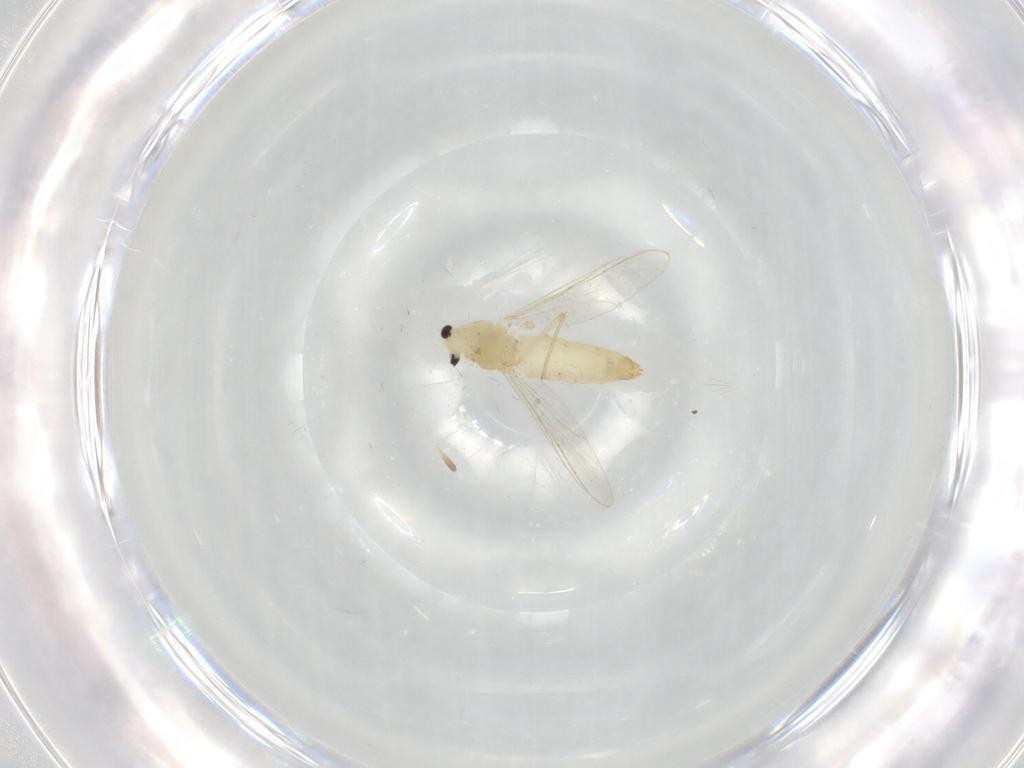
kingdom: Animalia
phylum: Arthropoda
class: Insecta
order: Diptera
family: Chironomidae
